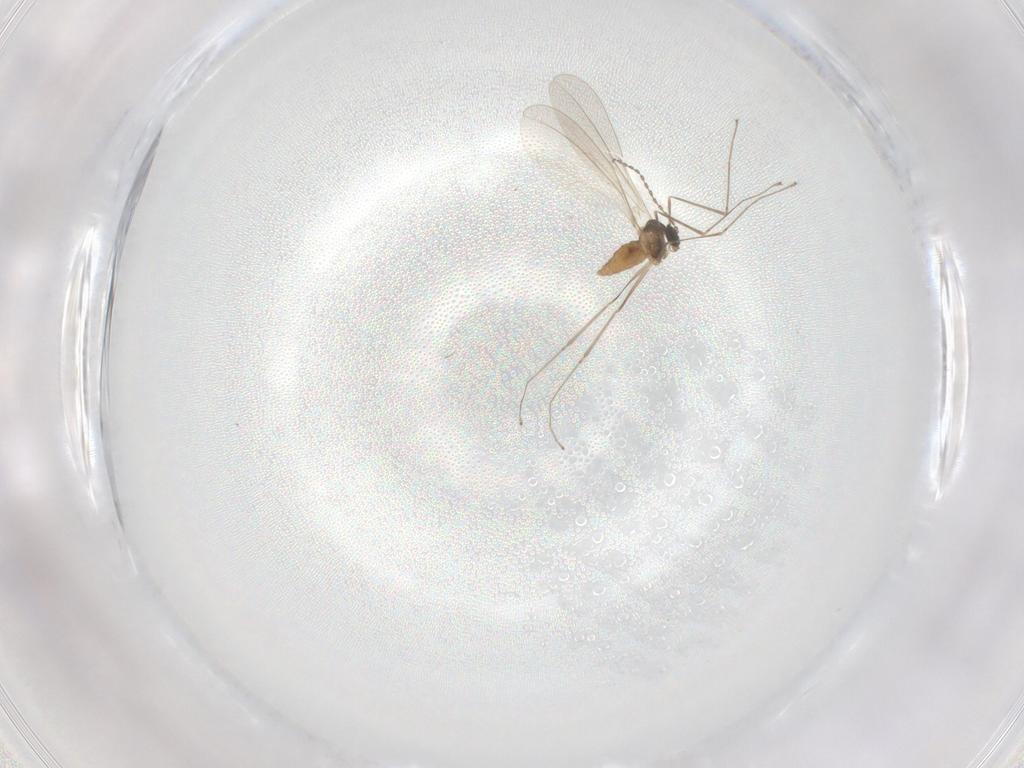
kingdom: Animalia
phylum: Arthropoda
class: Insecta
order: Diptera
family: Cecidomyiidae
